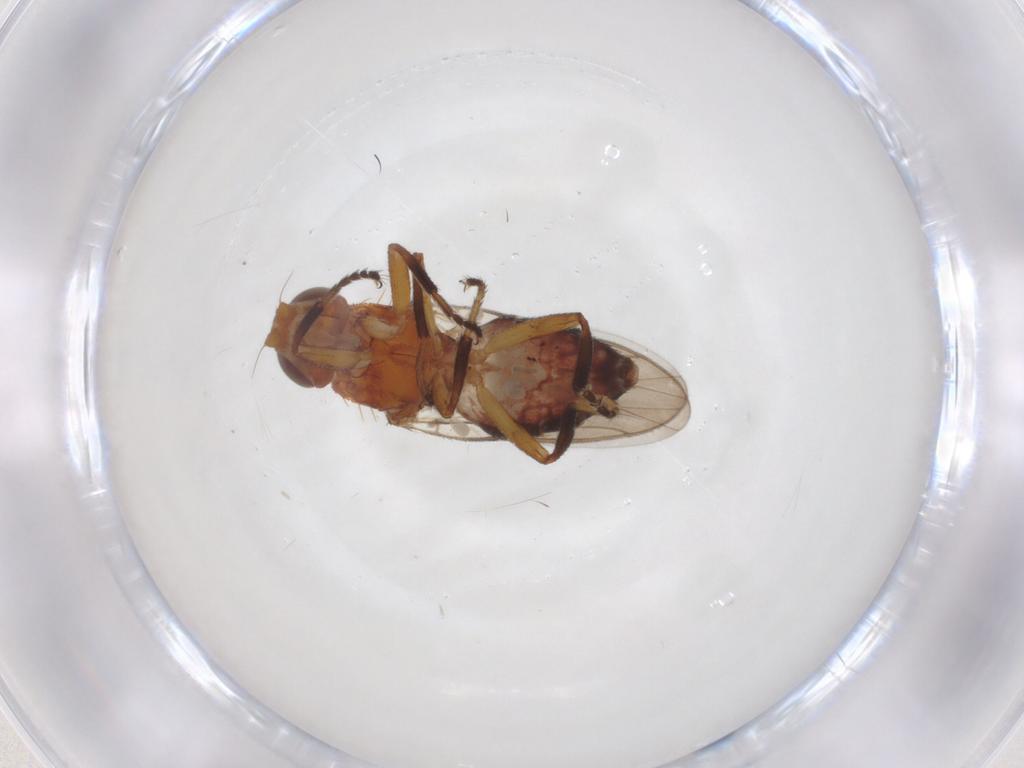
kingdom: Animalia
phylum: Arthropoda
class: Insecta
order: Diptera
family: Chloropidae
